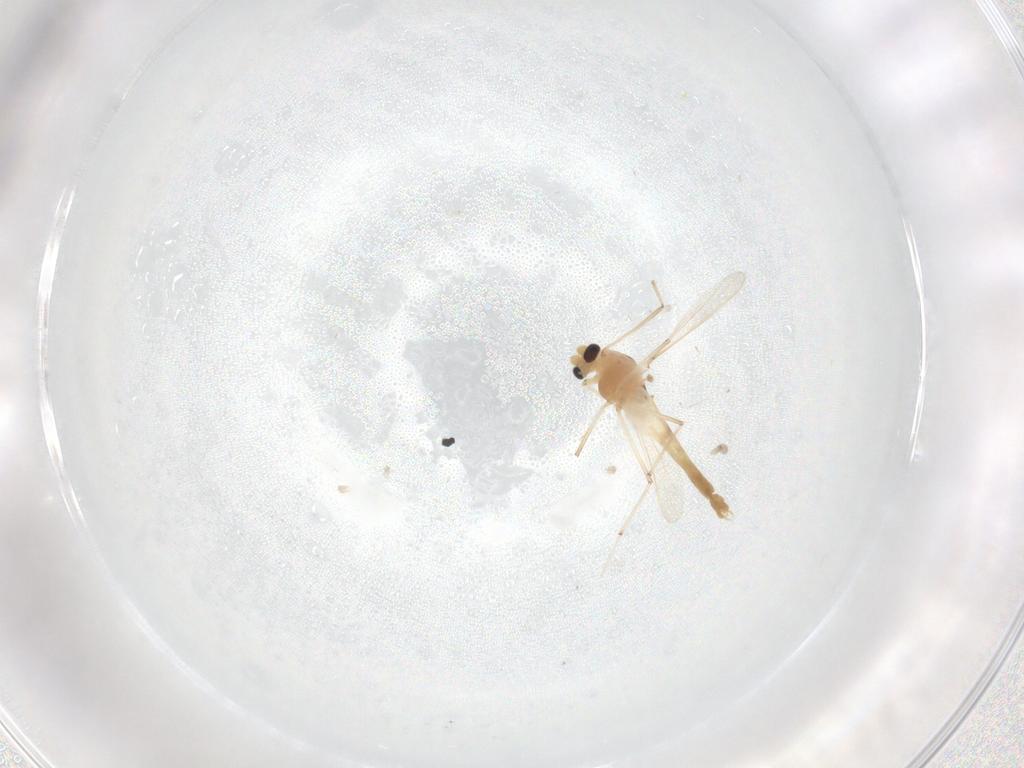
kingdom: Animalia
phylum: Arthropoda
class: Insecta
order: Diptera
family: Chironomidae
